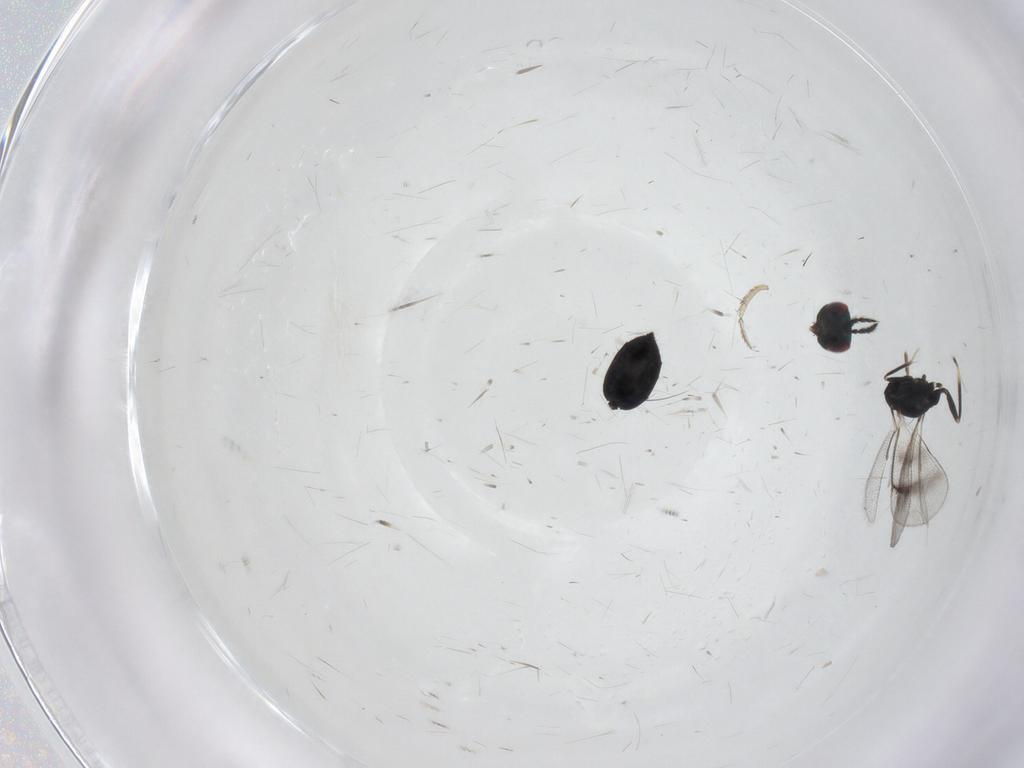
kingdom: Animalia
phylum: Arthropoda
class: Insecta
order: Hymenoptera
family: Eulophidae
